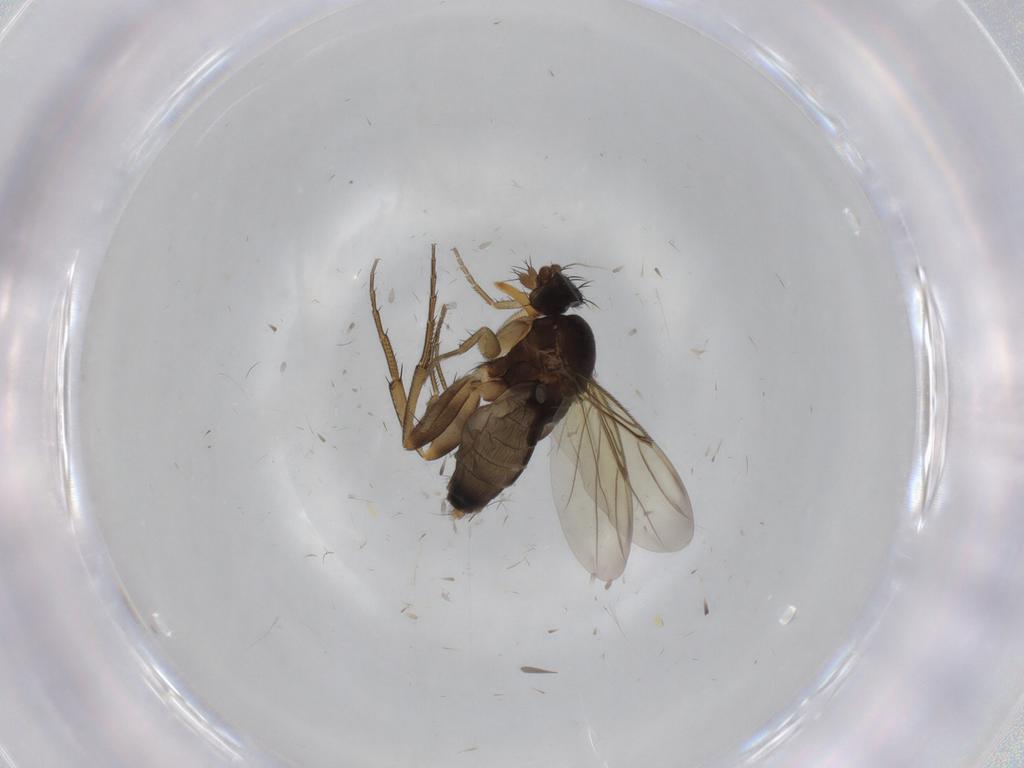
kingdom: Animalia
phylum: Arthropoda
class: Insecta
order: Diptera
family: Phoridae
